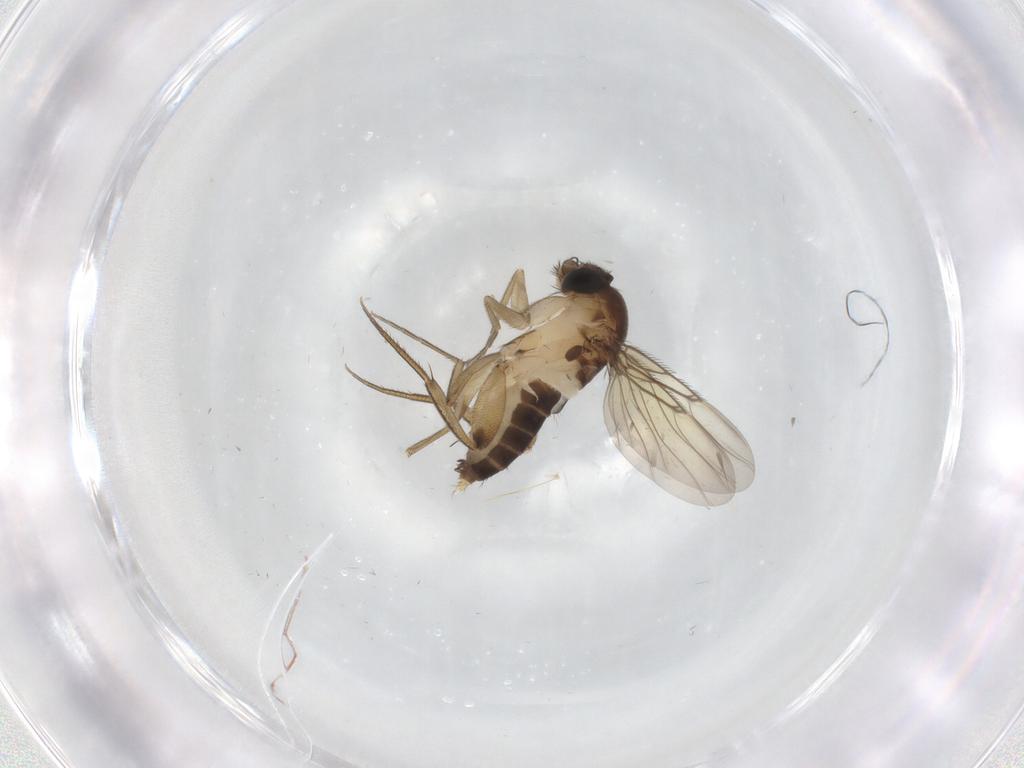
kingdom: Animalia
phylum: Arthropoda
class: Insecta
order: Diptera
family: Phoridae
